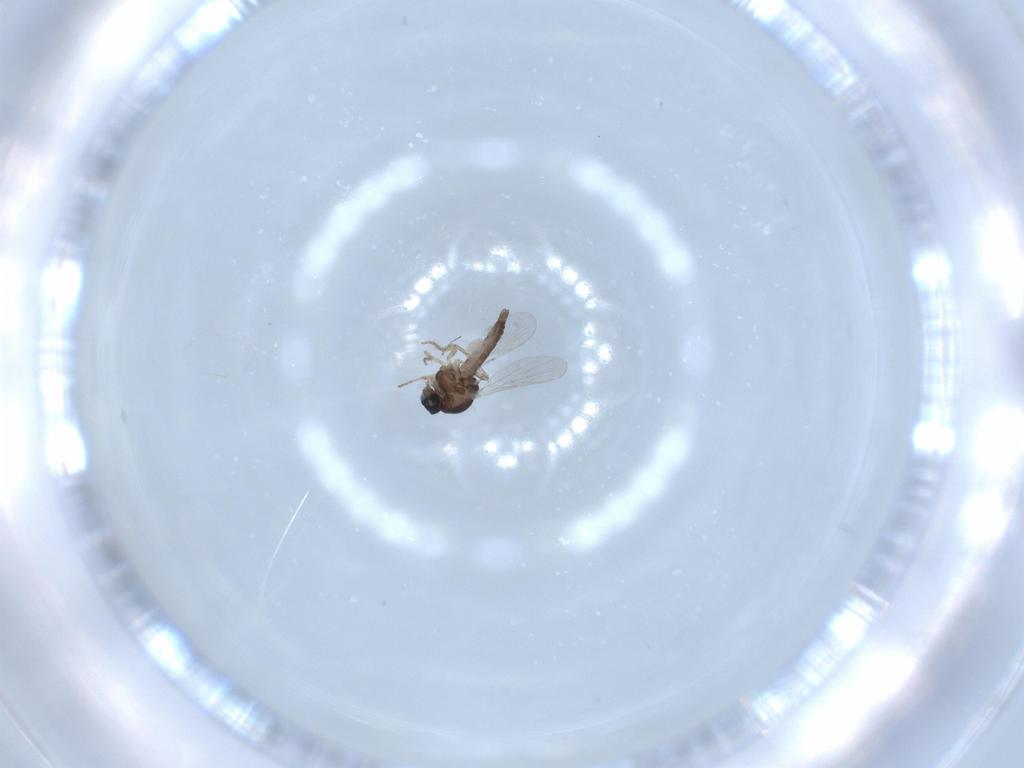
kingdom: Animalia
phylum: Arthropoda
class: Insecta
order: Diptera
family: Ceratopogonidae
